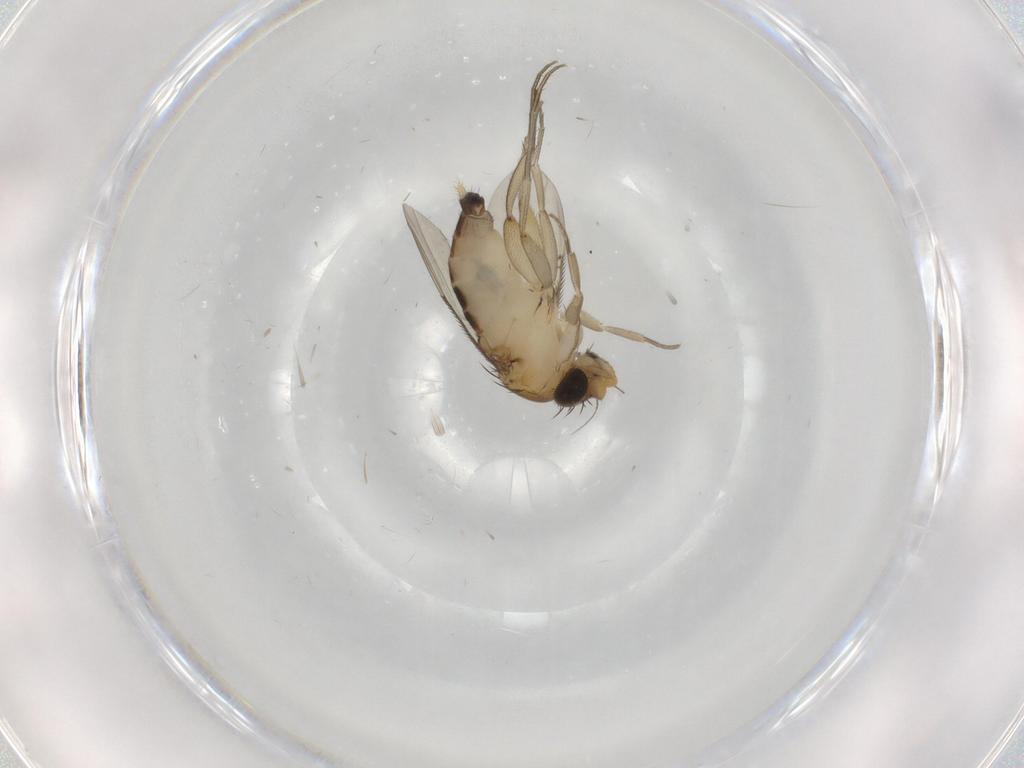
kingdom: Animalia
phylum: Arthropoda
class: Insecta
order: Diptera
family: Phoridae
